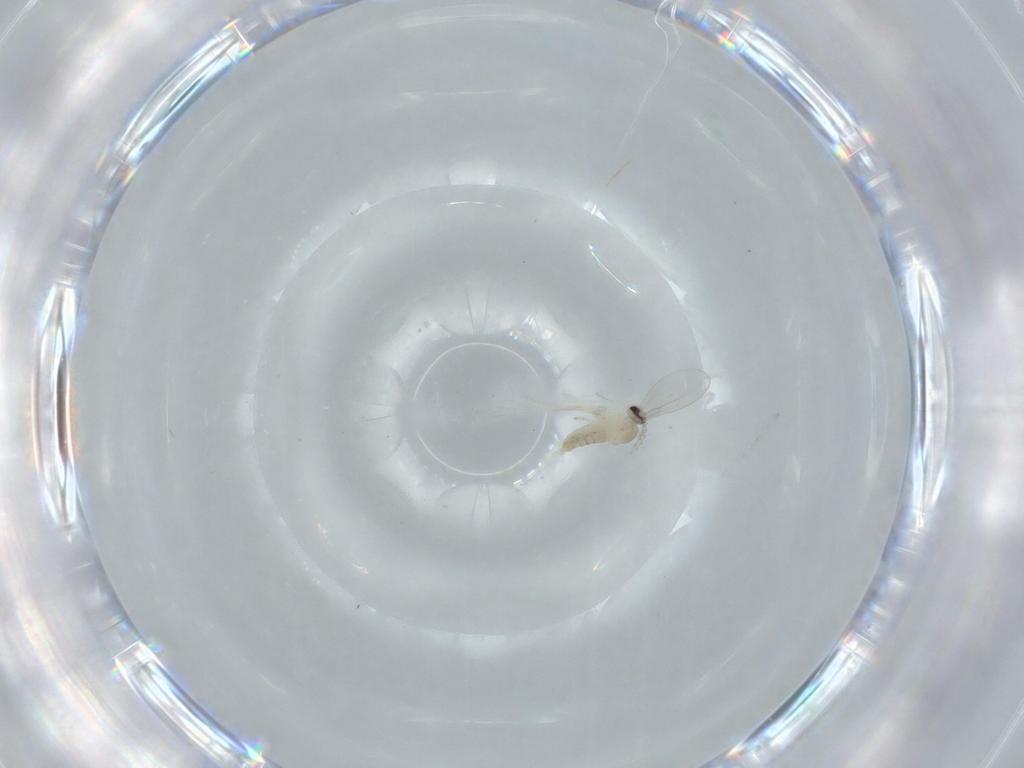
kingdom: Animalia
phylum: Arthropoda
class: Insecta
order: Diptera
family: Cecidomyiidae
